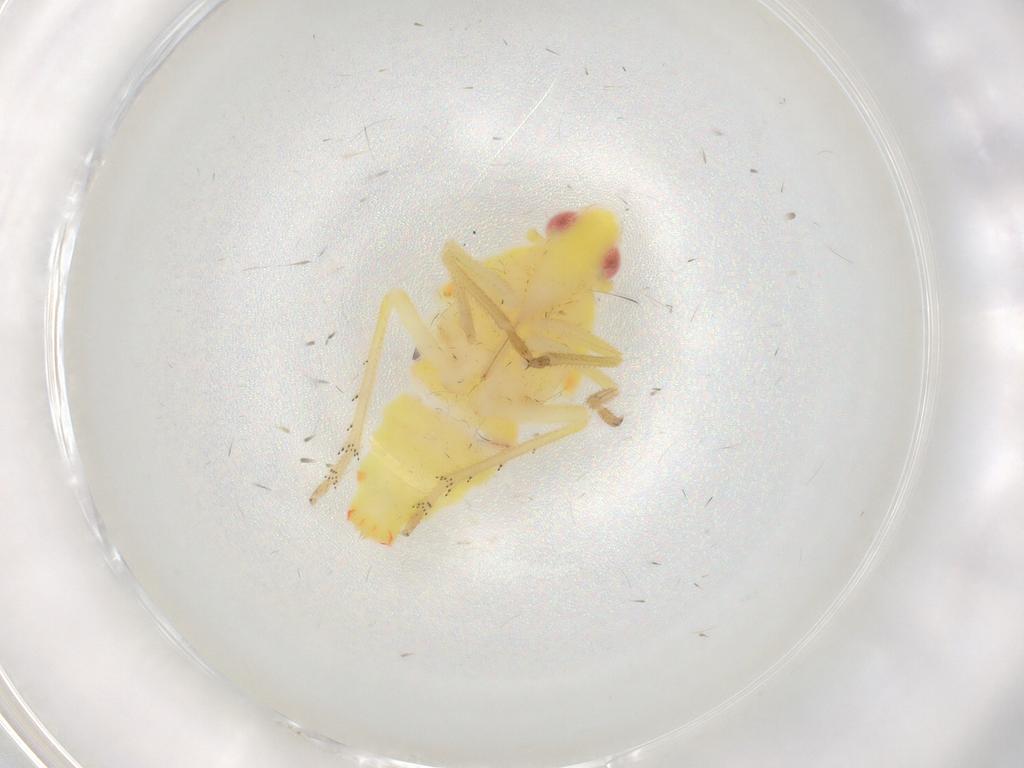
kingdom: Animalia
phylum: Arthropoda
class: Insecta
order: Hemiptera
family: Tropiduchidae
